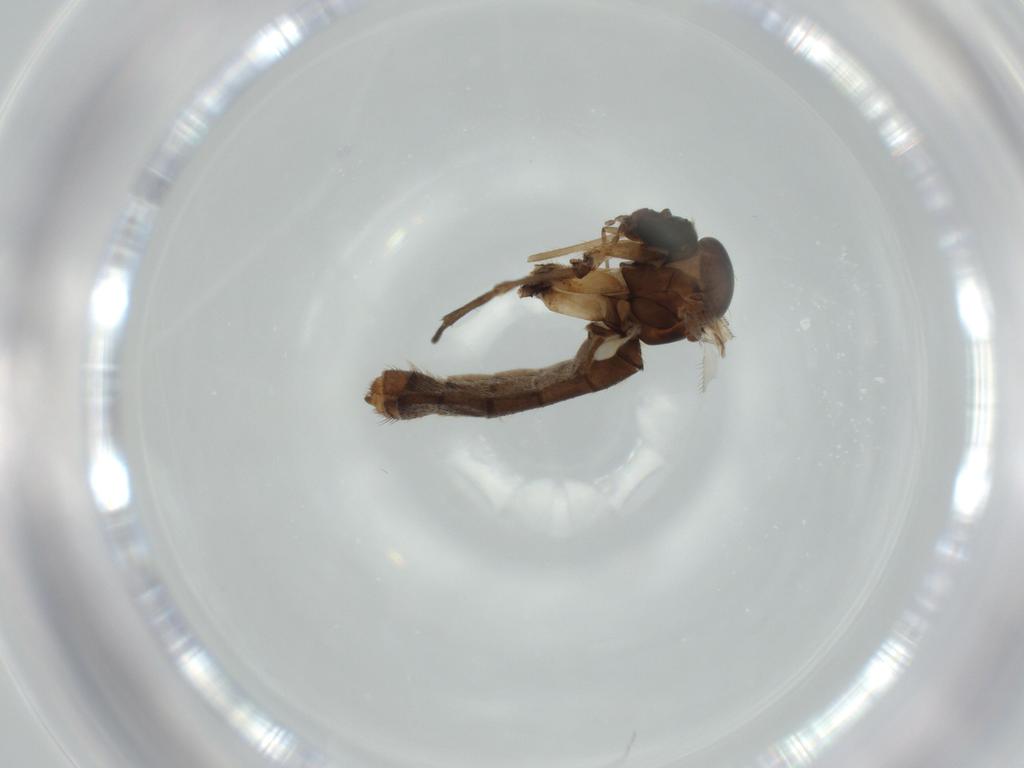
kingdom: Animalia
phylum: Arthropoda
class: Insecta
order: Diptera
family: Mycetophilidae
